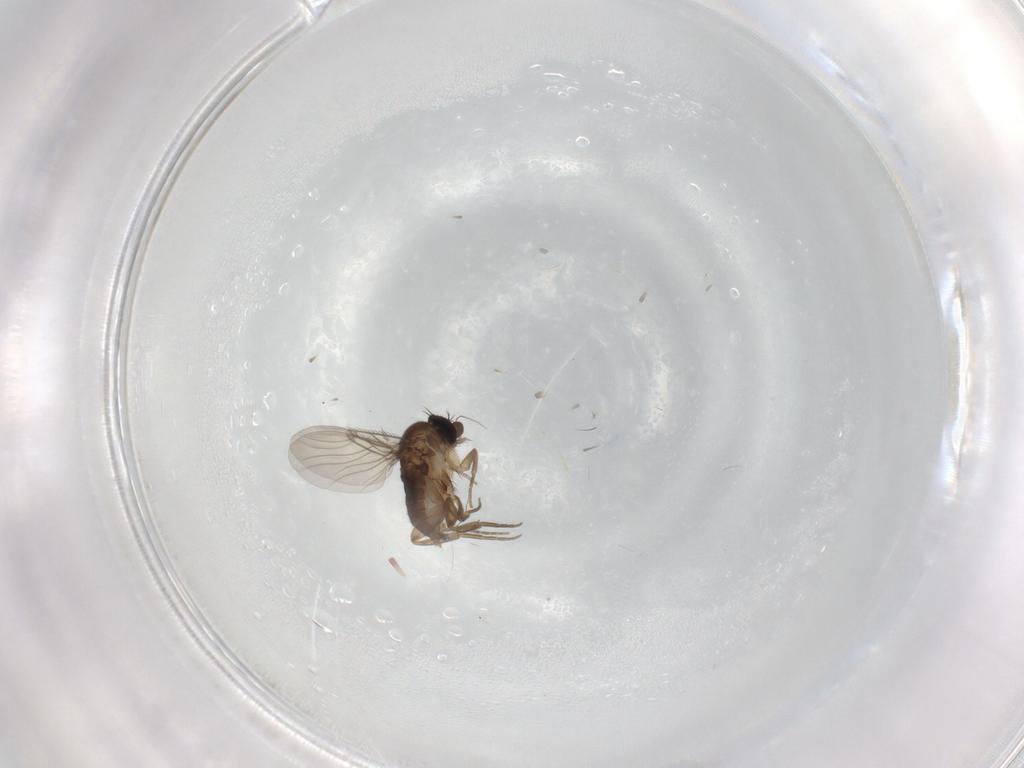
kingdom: Animalia
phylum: Arthropoda
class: Insecta
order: Diptera
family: Phoridae
